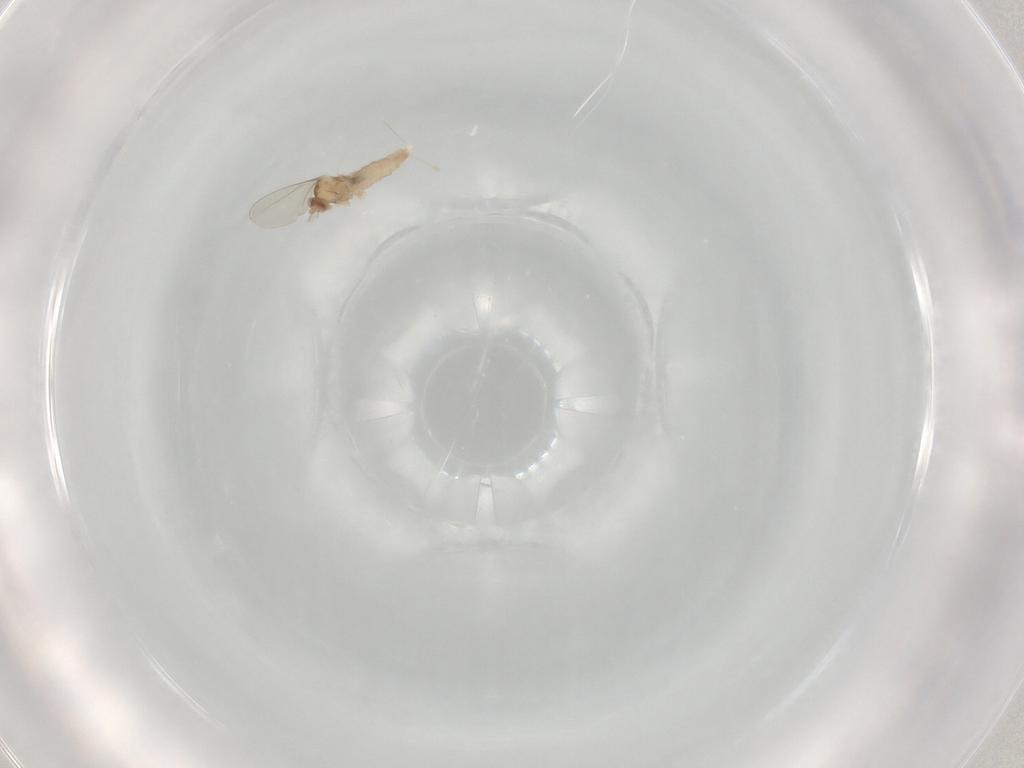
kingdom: Animalia
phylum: Arthropoda
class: Insecta
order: Diptera
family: Cecidomyiidae
